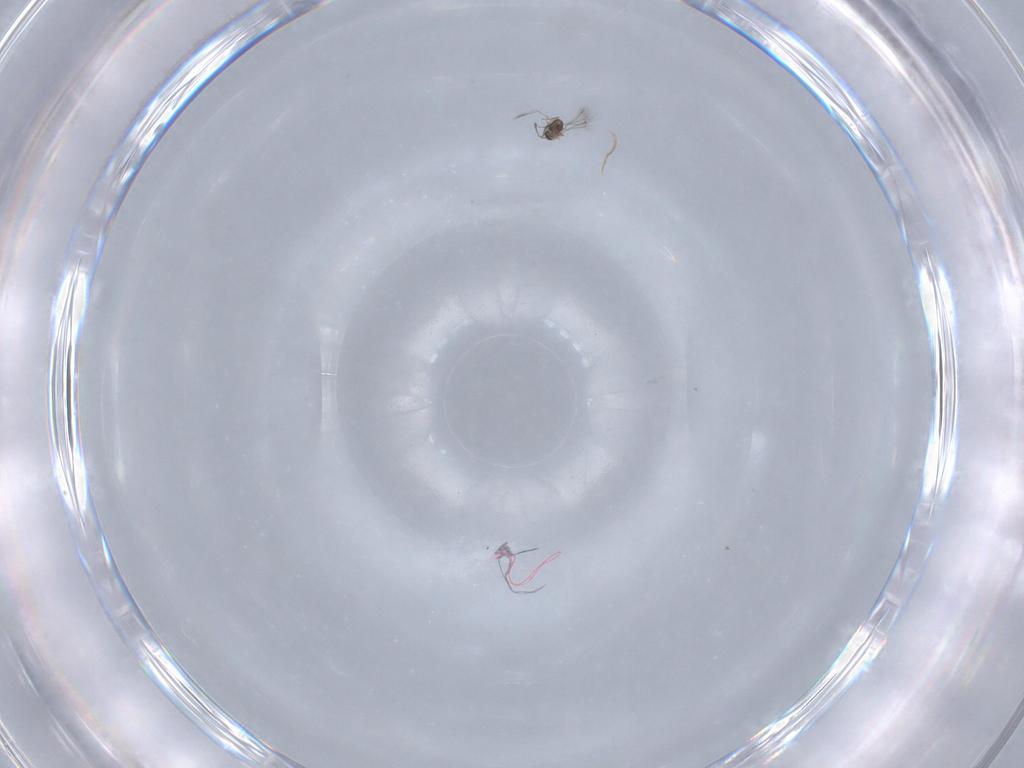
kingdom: Animalia
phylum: Arthropoda
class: Insecta
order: Hymenoptera
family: Mymaridae
